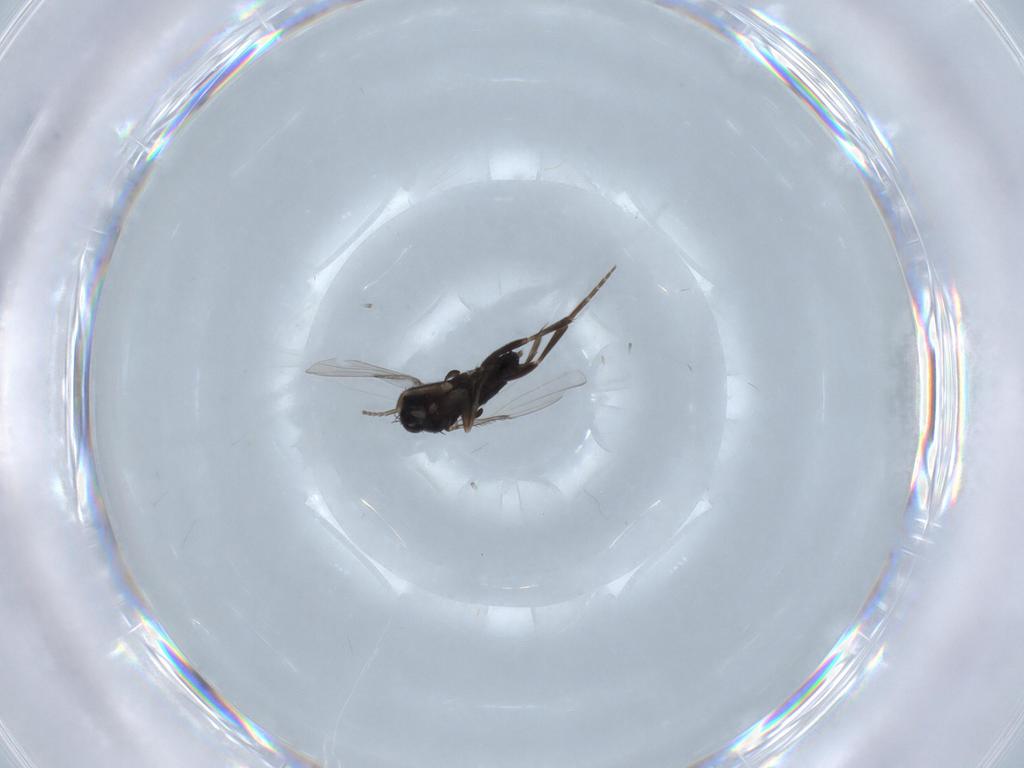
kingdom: Animalia
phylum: Arthropoda
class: Insecta
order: Diptera
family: Phoridae
